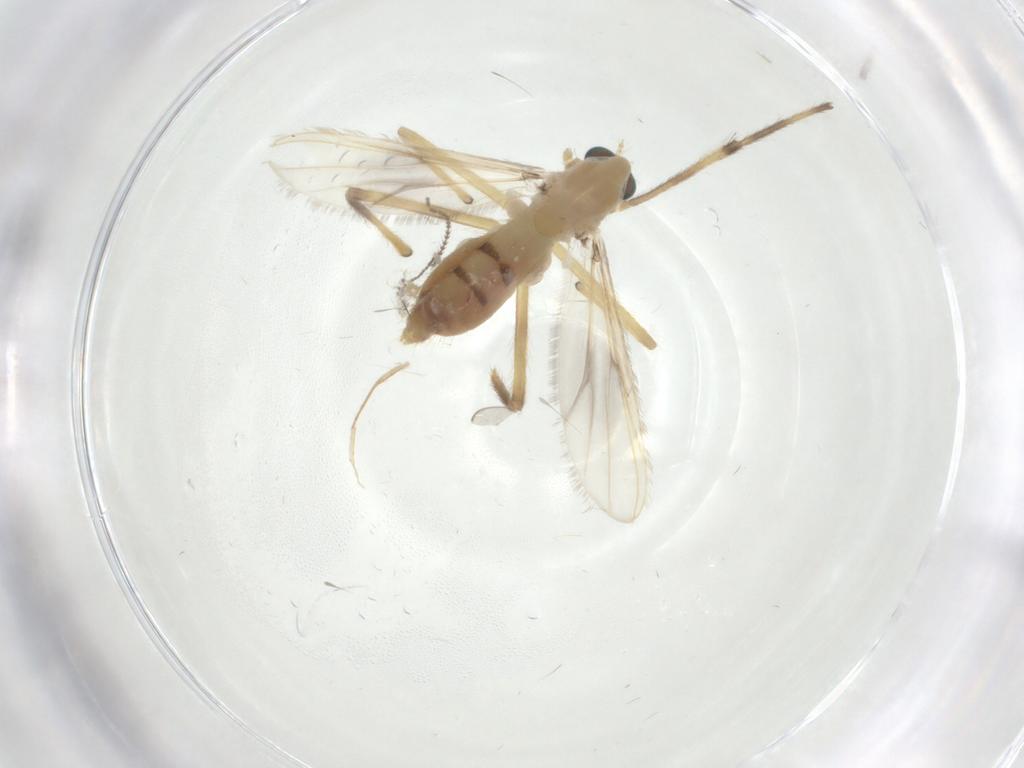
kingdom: Animalia
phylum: Arthropoda
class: Insecta
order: Diptera
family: Chironomidae
